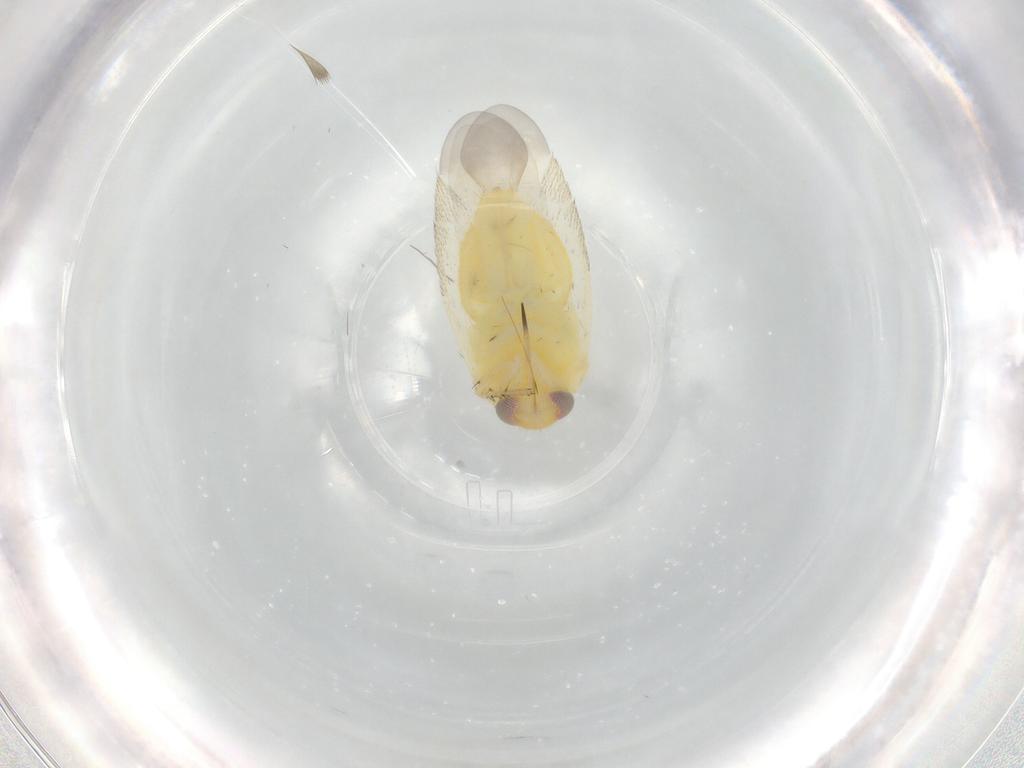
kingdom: Animalia
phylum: Arthropoda
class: Insecta
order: Hemiptera
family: Miridae
